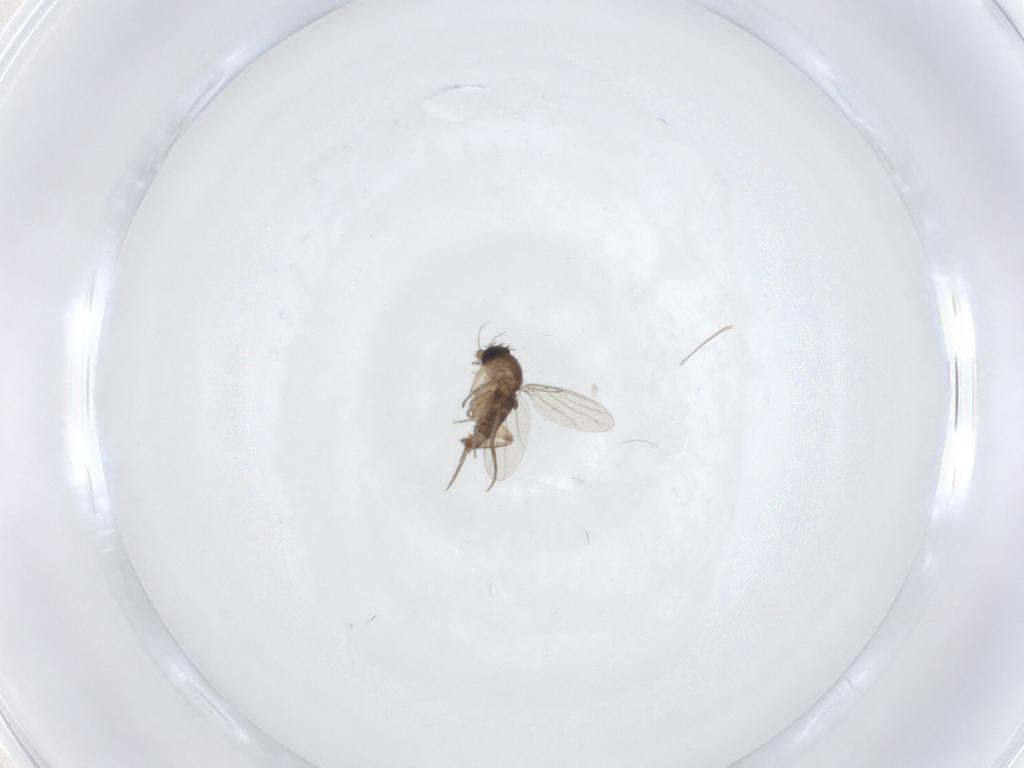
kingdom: Animalia
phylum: Arthropoda
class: Insecta
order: Diptera
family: Phoridae
